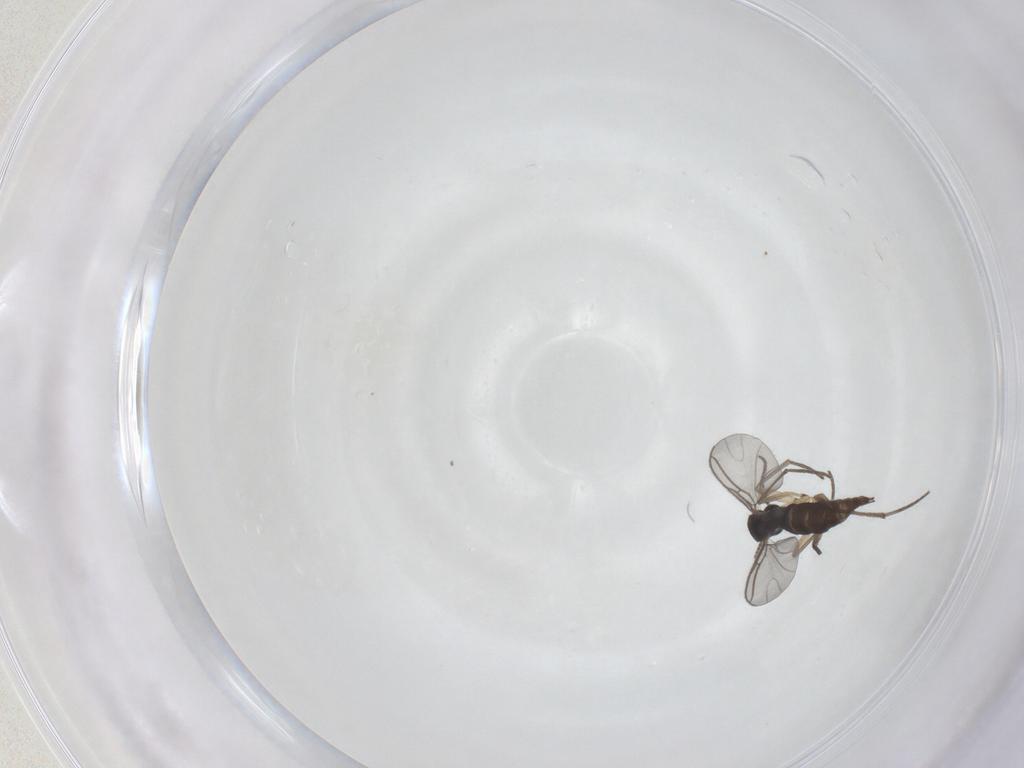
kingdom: Animalia
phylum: Arthropoda
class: Insecta
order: Diptera
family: Sciaridae
